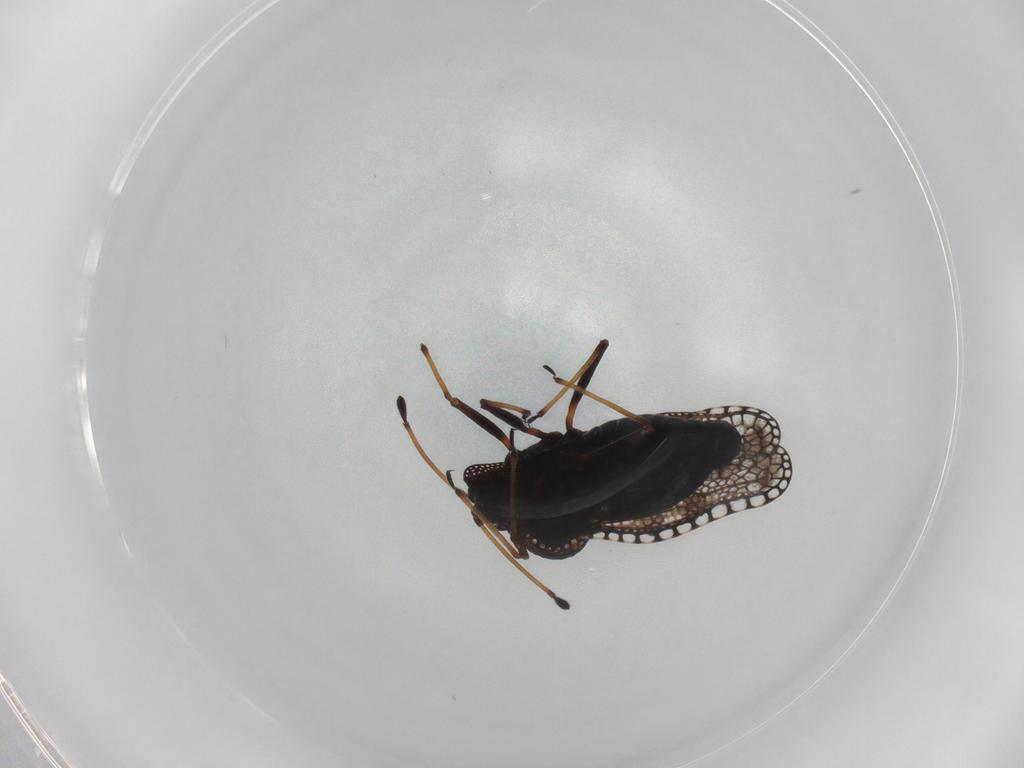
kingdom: Animalia
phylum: Arthropoda
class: Insecta
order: Hemiptera
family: Tingidae
